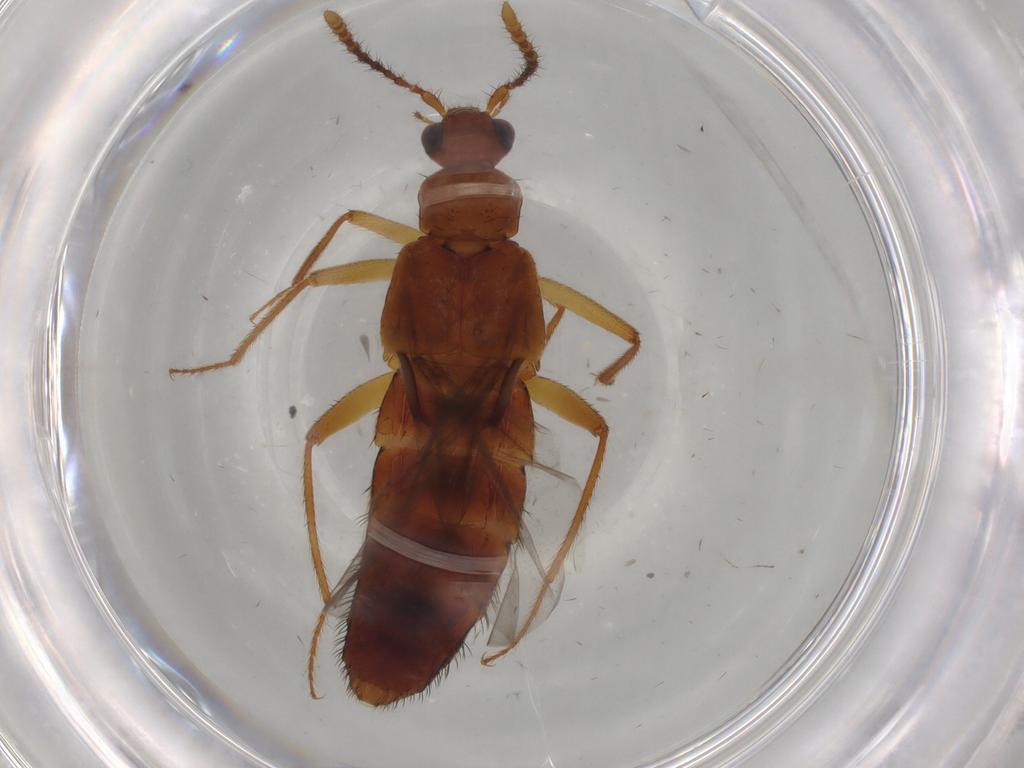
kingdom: Animalia
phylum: Arthropoda
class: Insecta
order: Coleoptera
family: Staphylinidae
